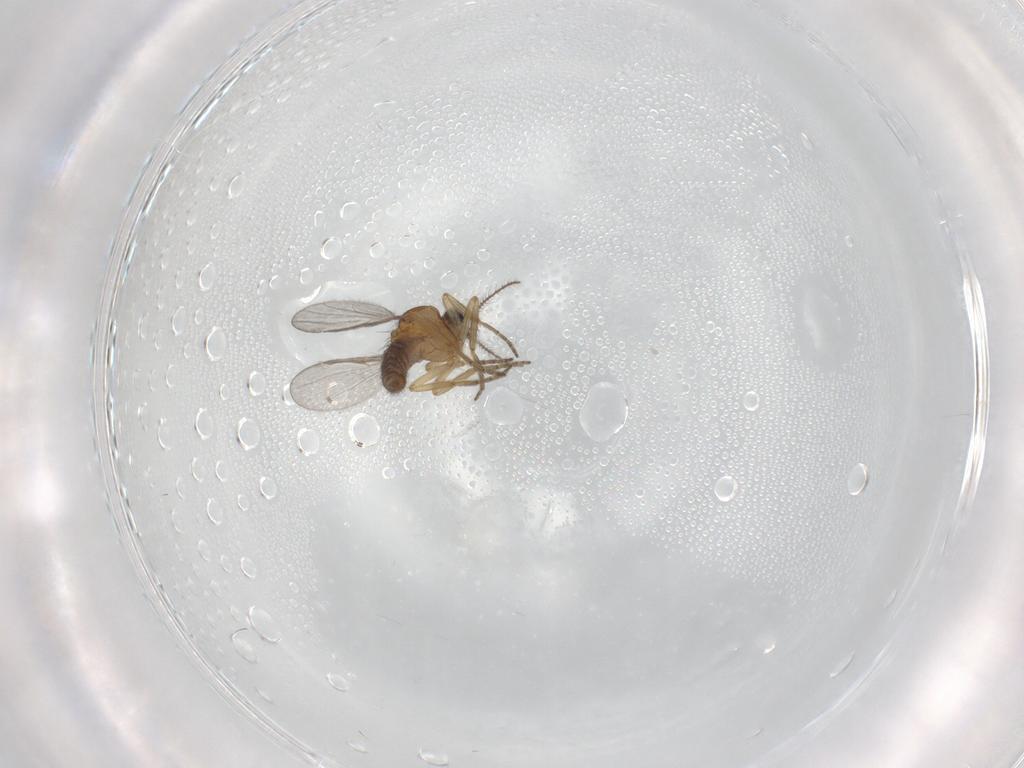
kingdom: Animalia
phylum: Arthropoda
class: Insecta
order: Diptera
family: Ceratopogonidae
